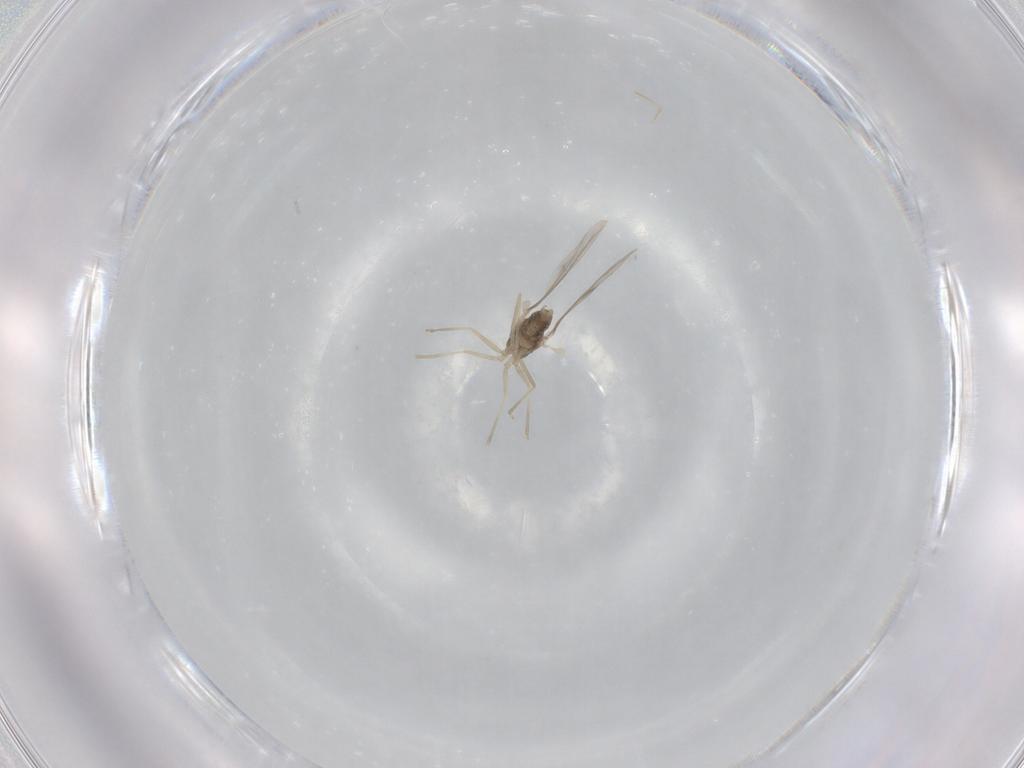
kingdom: Animalia
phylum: Arthropoda
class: Insecta
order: Diptera
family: Cecidomyiidae
